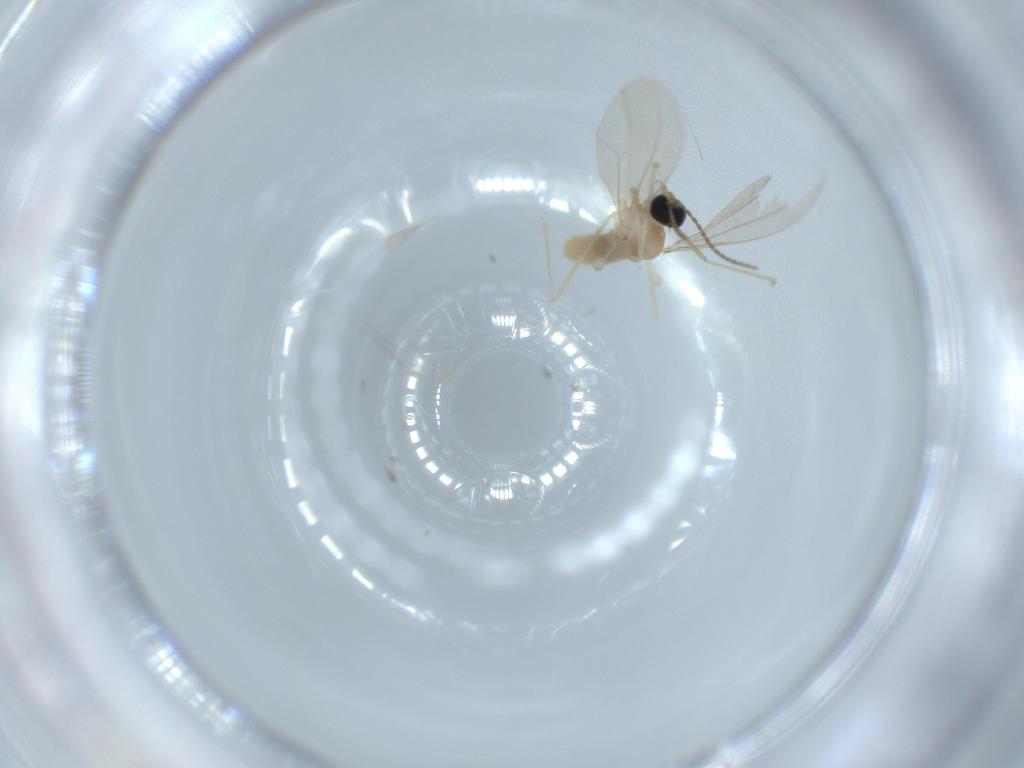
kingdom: Animalia
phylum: Arthropoda
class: Insecta
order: Diptera
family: Cecidomyiidae
